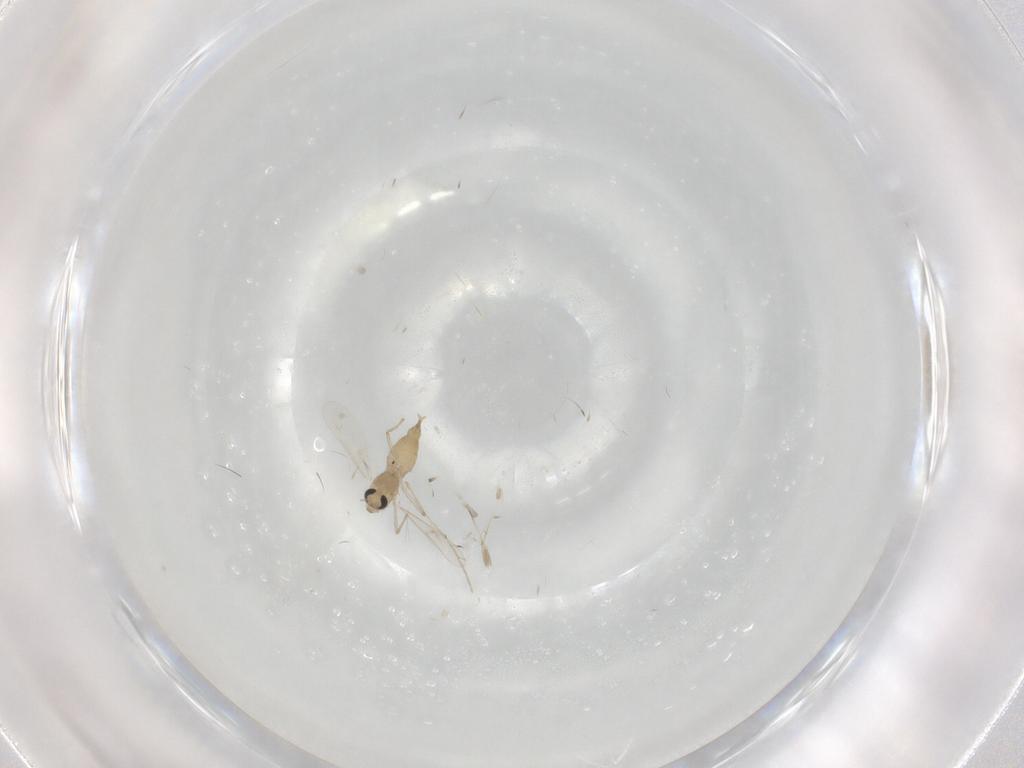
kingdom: Animalia
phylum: Arthropoda
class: Insecta
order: Diptera
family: Chironomidae
